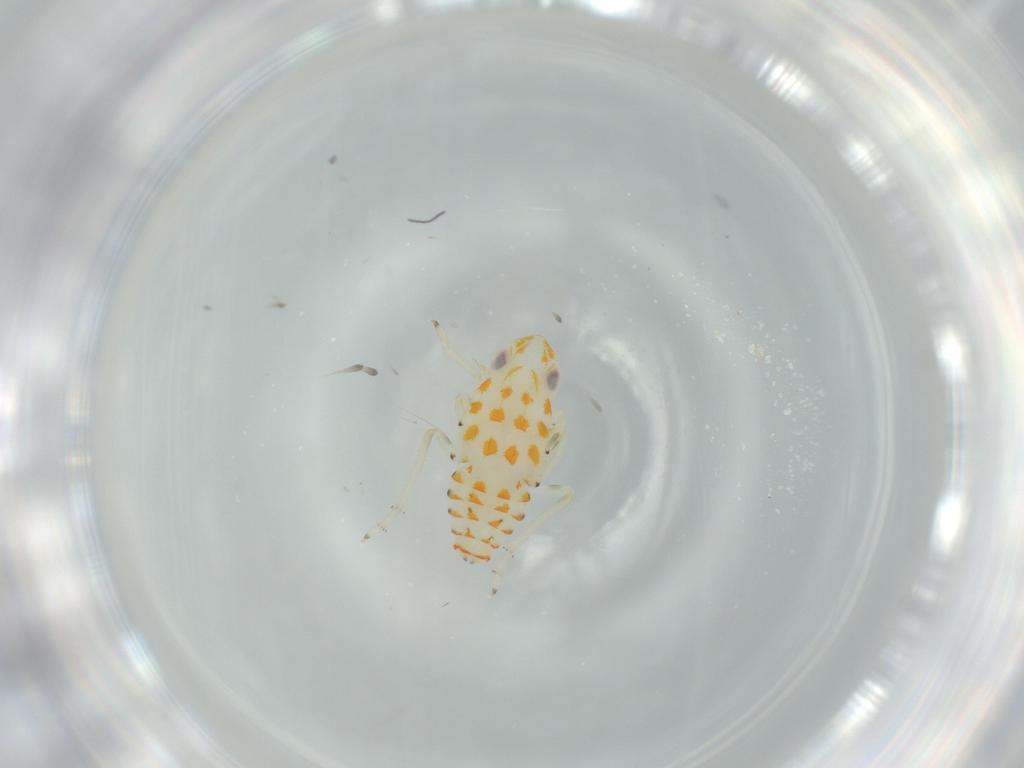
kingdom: Animalia
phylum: Arthropoda
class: Insecta
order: Hemiptera
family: Tropiduchidae
